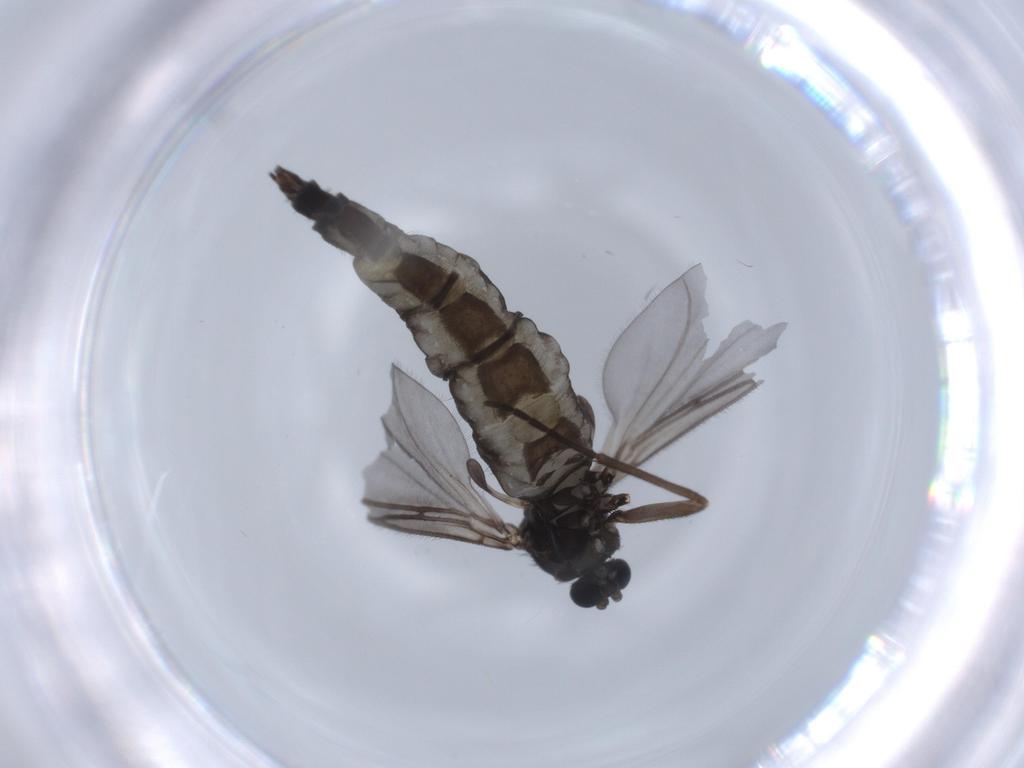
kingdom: Animalia
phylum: Arthropoda
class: Insecta
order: Diptera
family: Sciaridae
